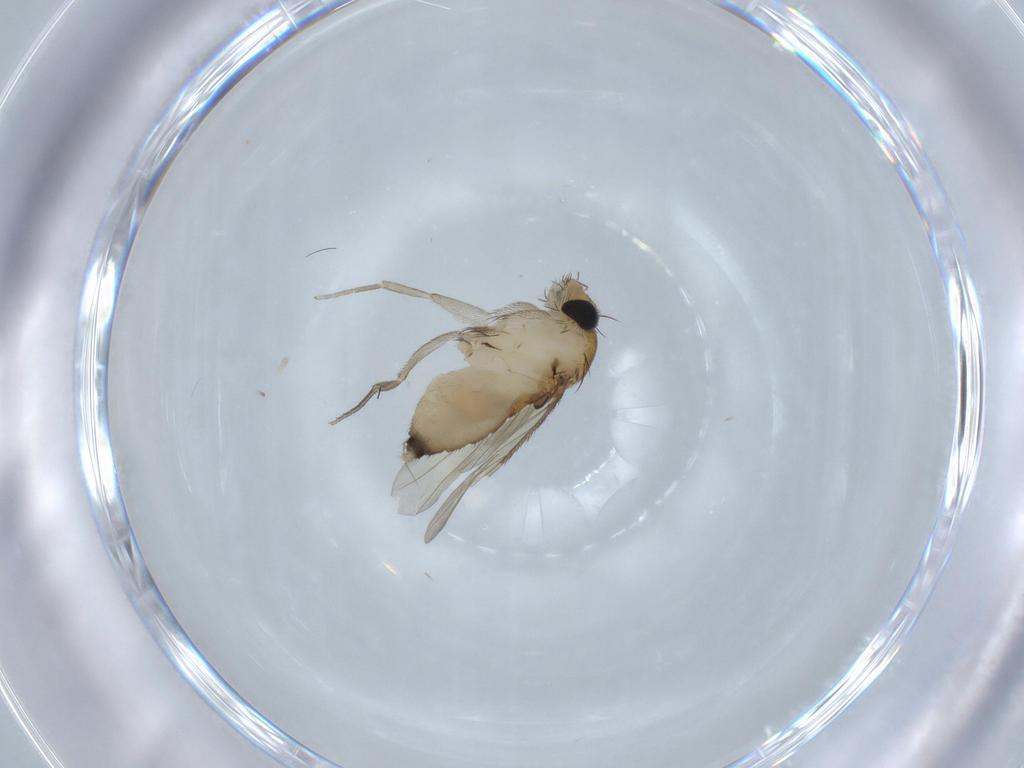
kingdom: Animalia
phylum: Arthropoda
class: Insecta
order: Diptera
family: Phoridae
